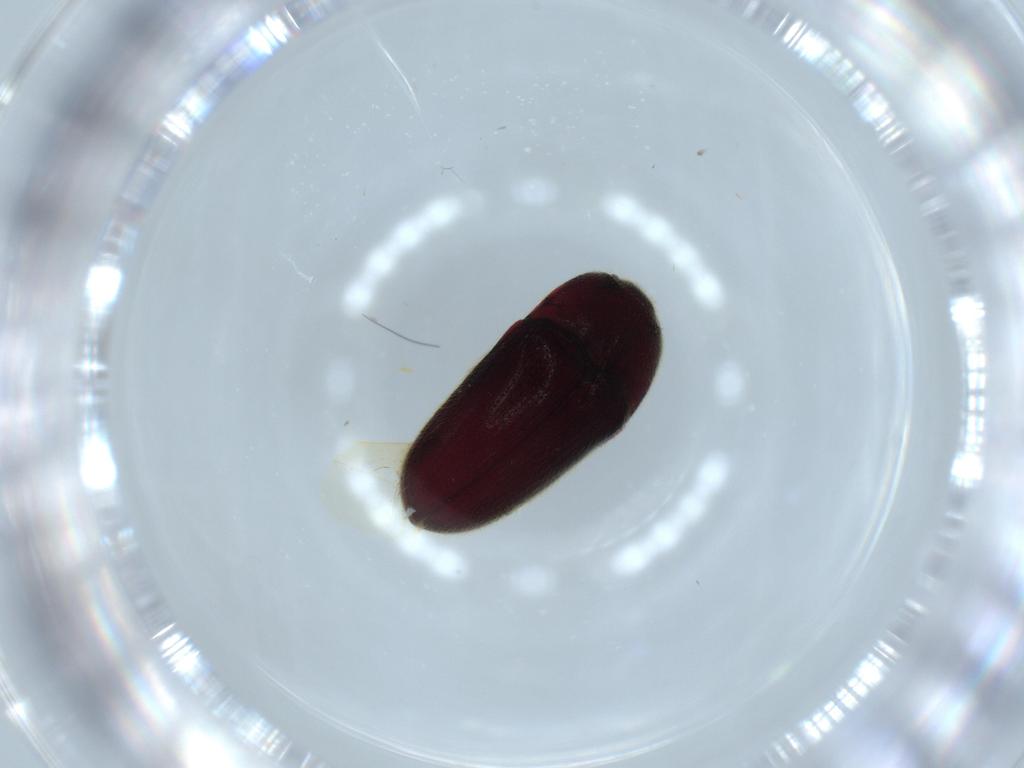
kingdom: Animalia
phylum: Arthropoda
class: Insecta
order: Coleoptera
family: Throscidae
